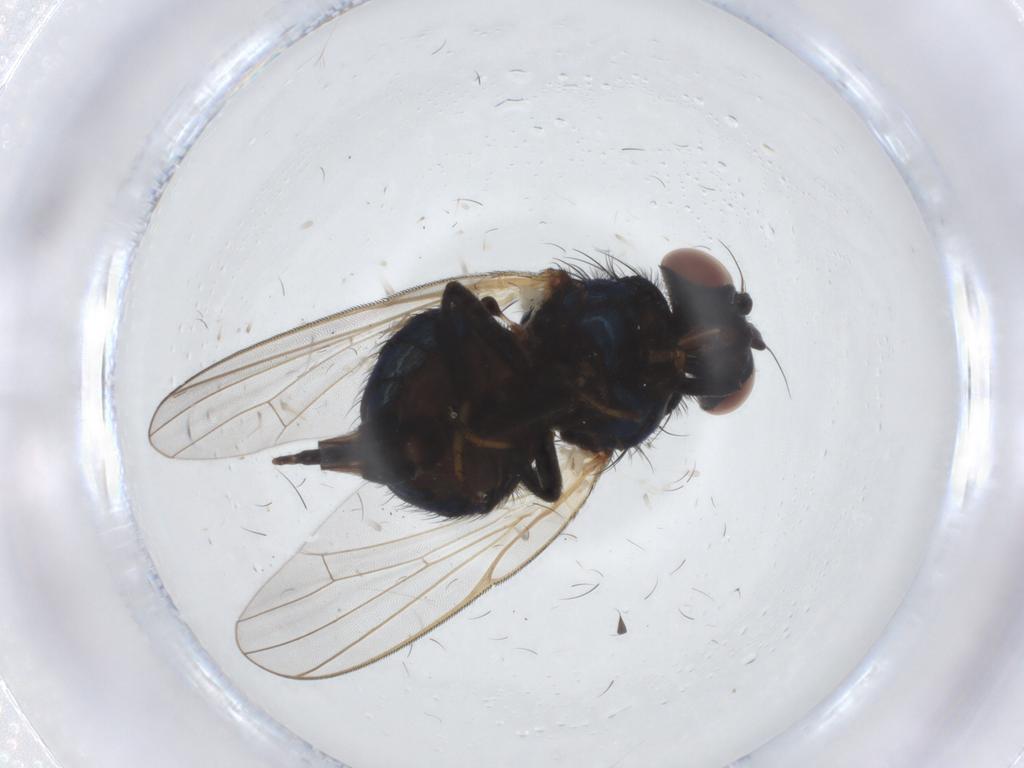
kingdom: Animalia
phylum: Arthropoda
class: Insecta
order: Diptera
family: Lonchaeidae
